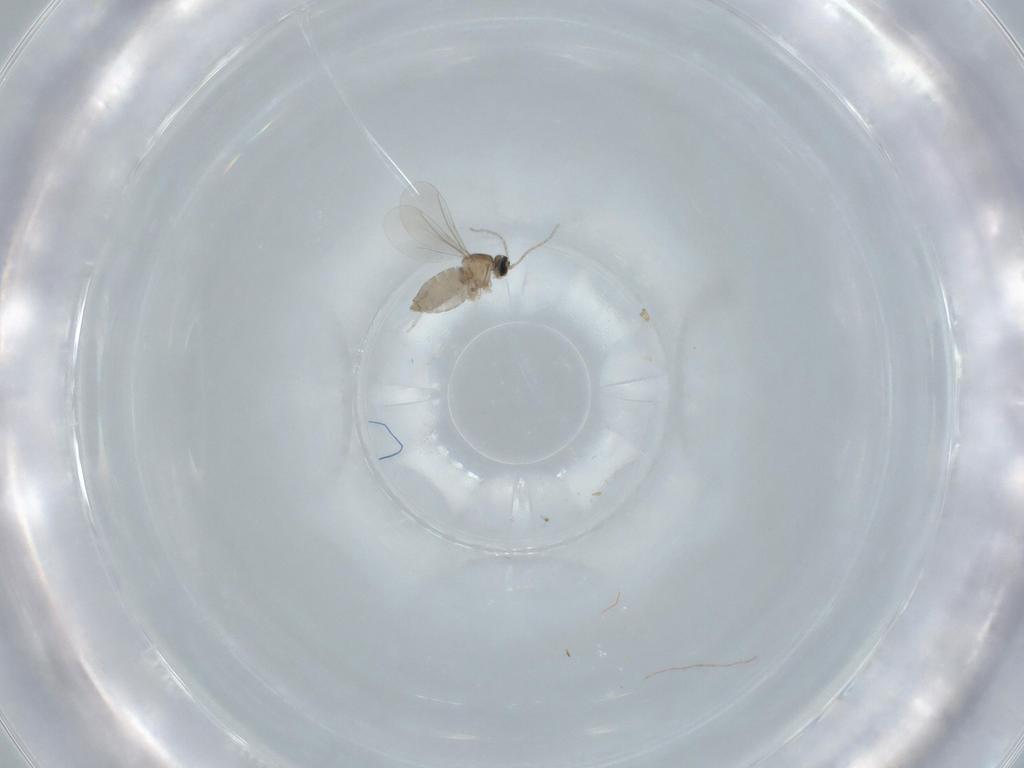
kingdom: Animalia
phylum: Arthropoda
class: Insecta
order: Diptera
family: Cecidomyiidae
